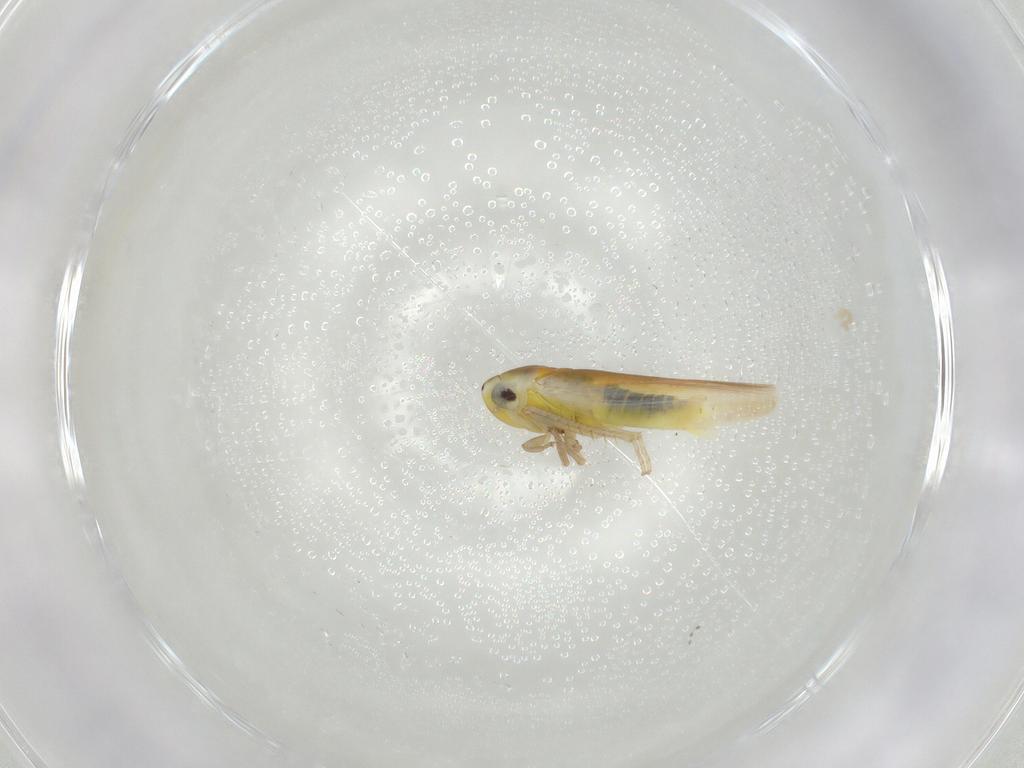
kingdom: Animalia
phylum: Arthropoda
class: Insecta
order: Hemiptera
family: Cicadellidae
